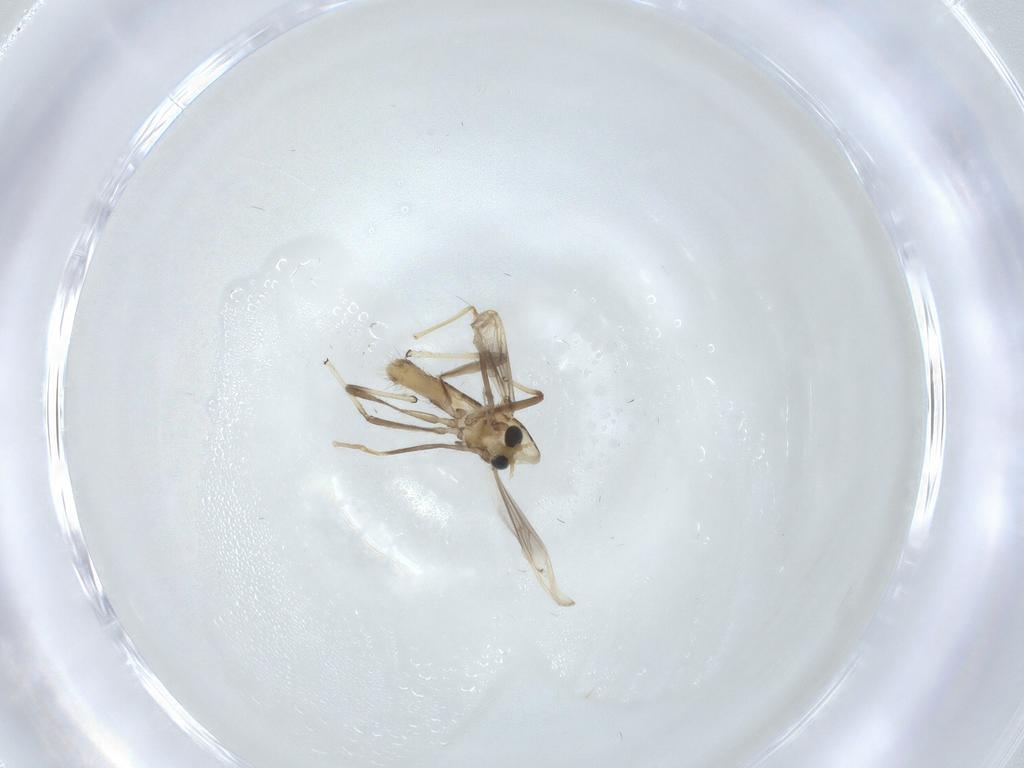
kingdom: Animalia
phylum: Arthropoda
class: Insecta
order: Diptera
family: Chironomidae
